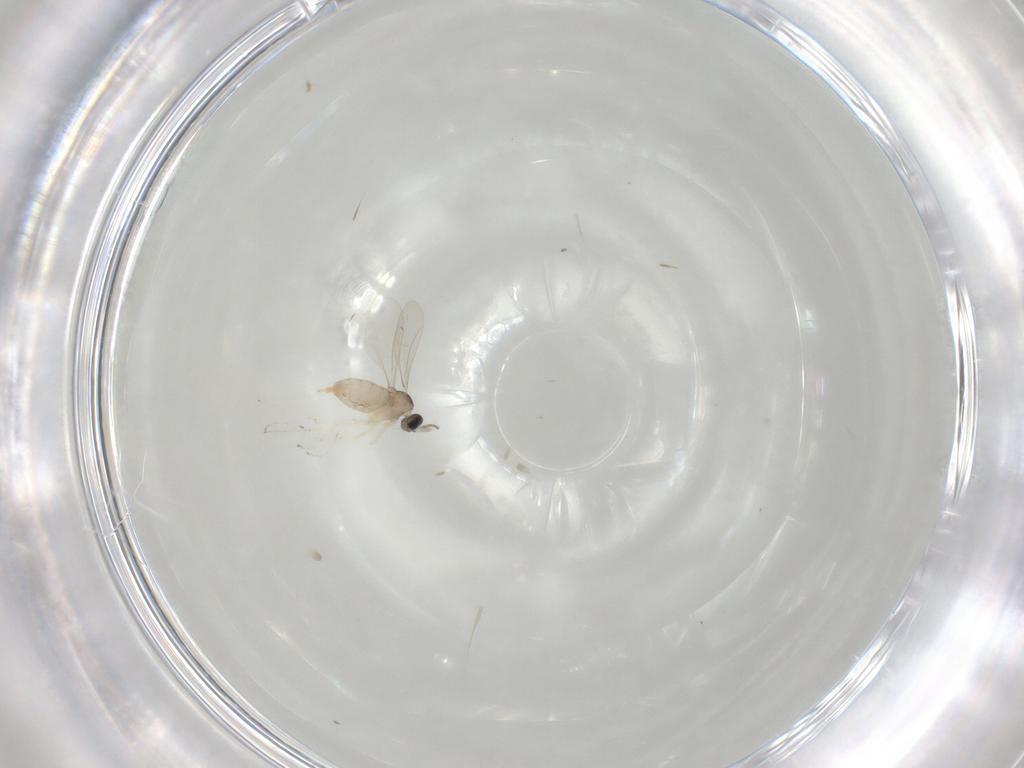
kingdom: Animalia
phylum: Arthropoda
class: Insecta
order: Diptera
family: Cecidomyiidae
